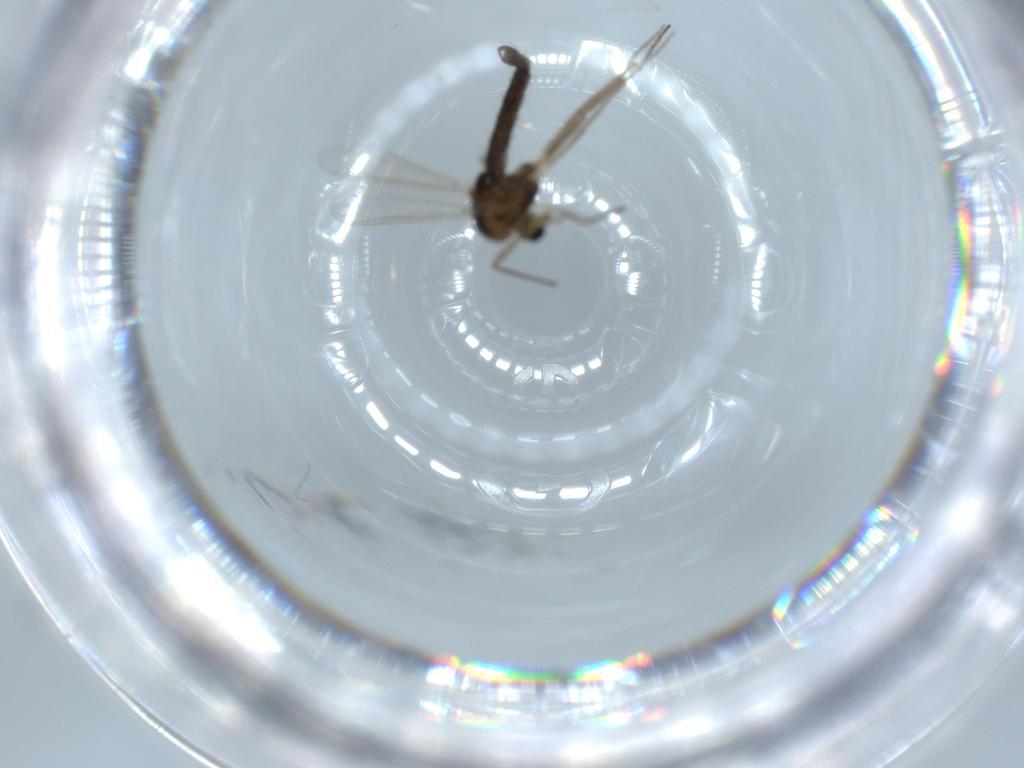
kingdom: Animalia
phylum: Arthropoda
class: Insecta
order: Diptera
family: Chironomidae
